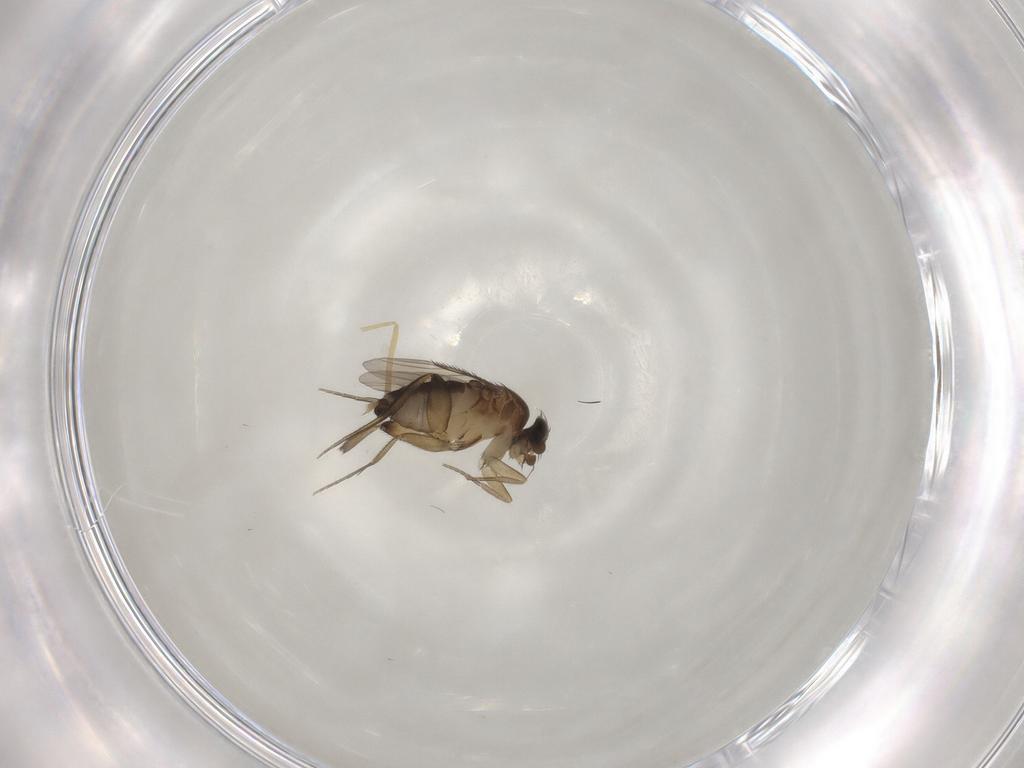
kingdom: Animalia
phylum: Arthropoda
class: Insecta
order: Diptera
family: Phoridae
